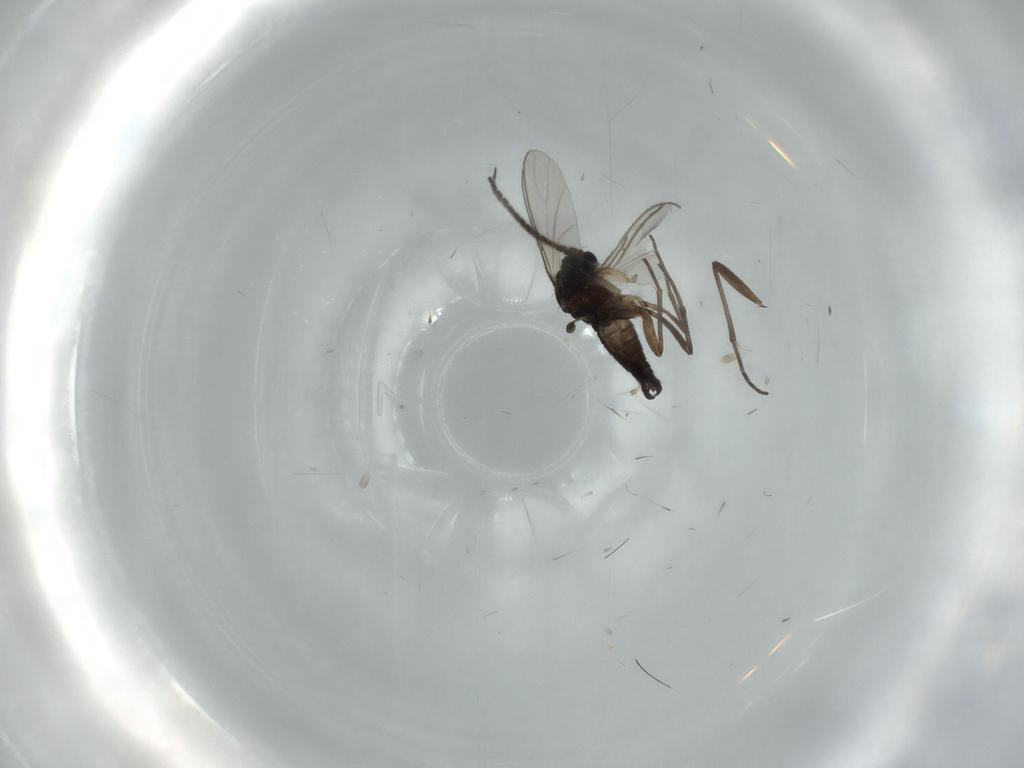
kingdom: Animalia
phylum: Arthropoda
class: Insecta
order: Diptera
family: Sciaridae
